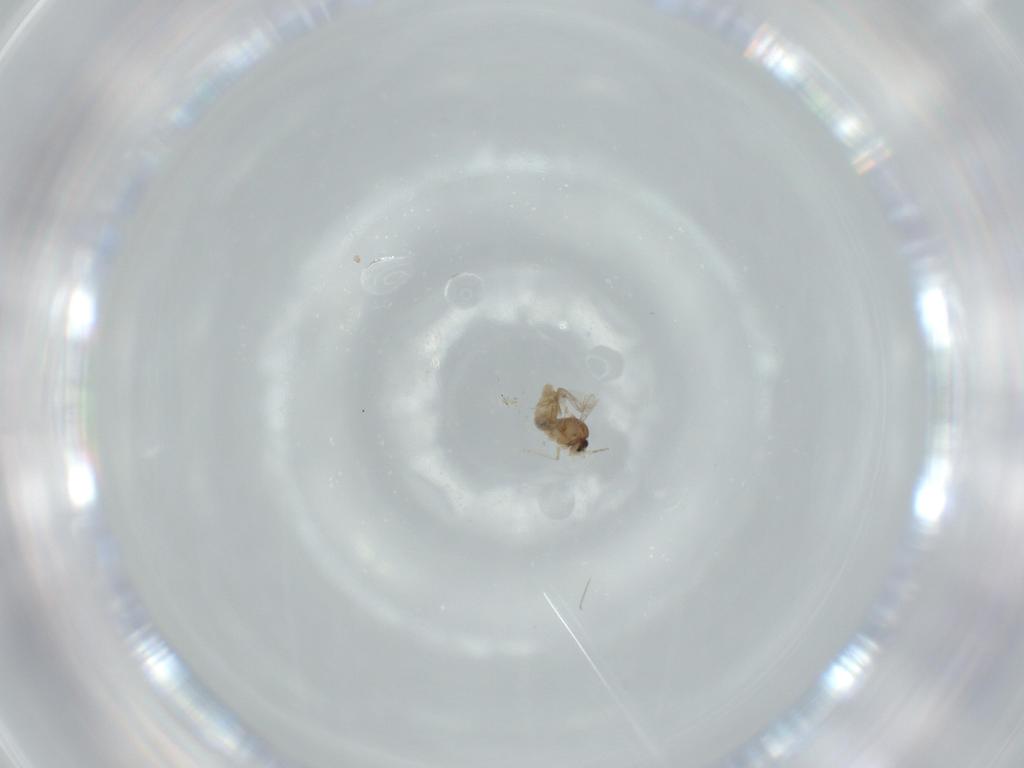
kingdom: Animalia
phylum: Arthropoda
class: Insecta
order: Diptera
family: Cecidomyiidae
